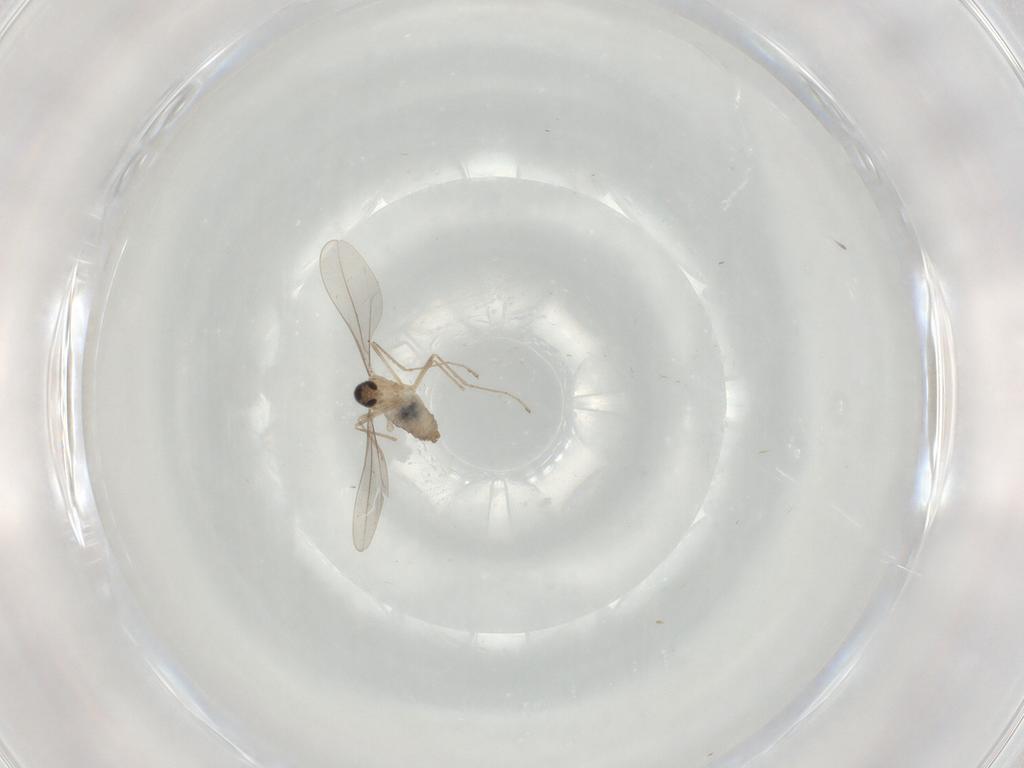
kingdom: Animalia
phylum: Arthropoda
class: Insecta
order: Diptera
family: Cecidomyiidae
